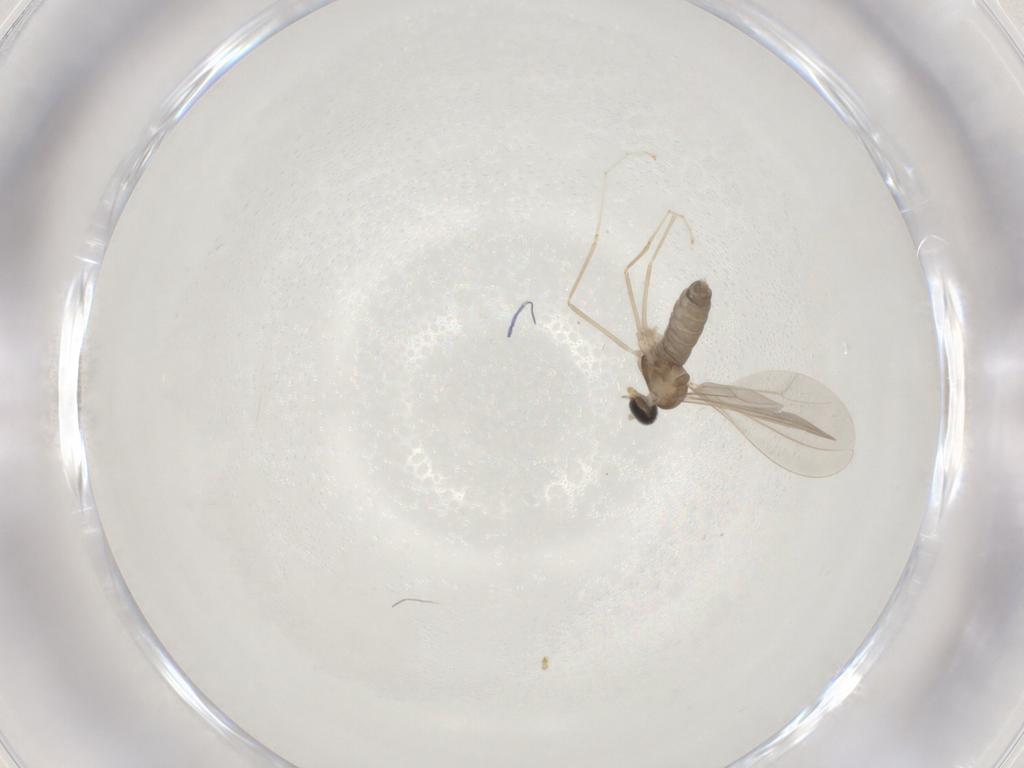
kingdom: Animalia
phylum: Arthropoda
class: Insecta
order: Diptera
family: Cecidomyiidae
